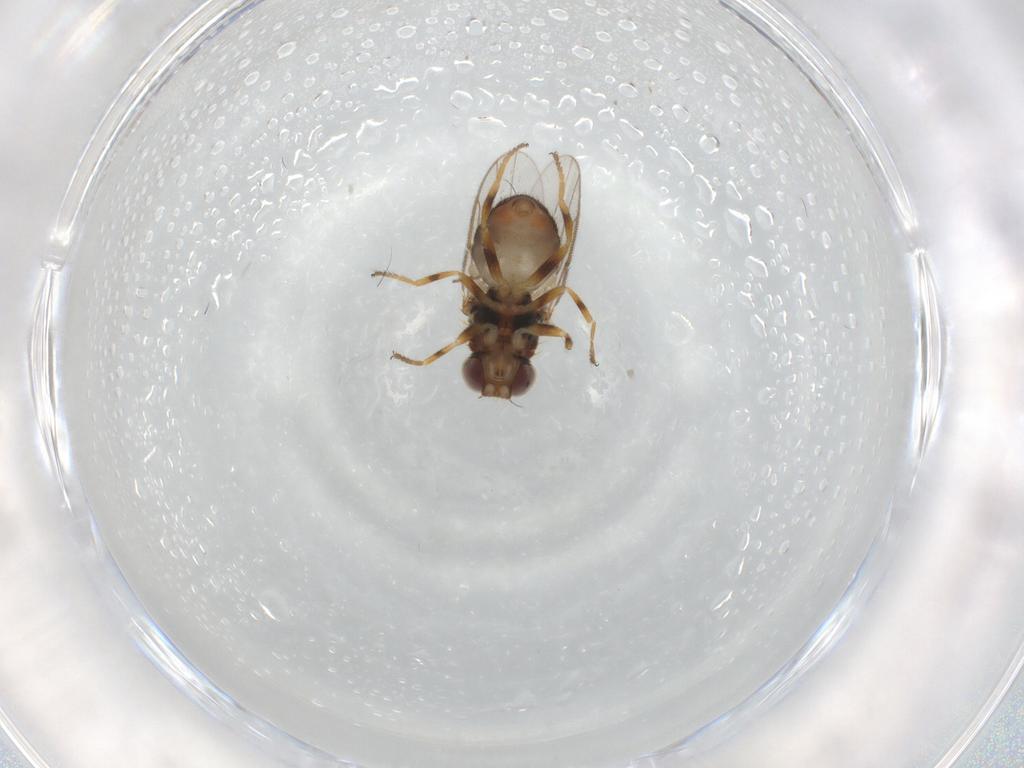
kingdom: Animalia
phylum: Arthropoda
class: Insecta
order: Diptera
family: Chloropidae
